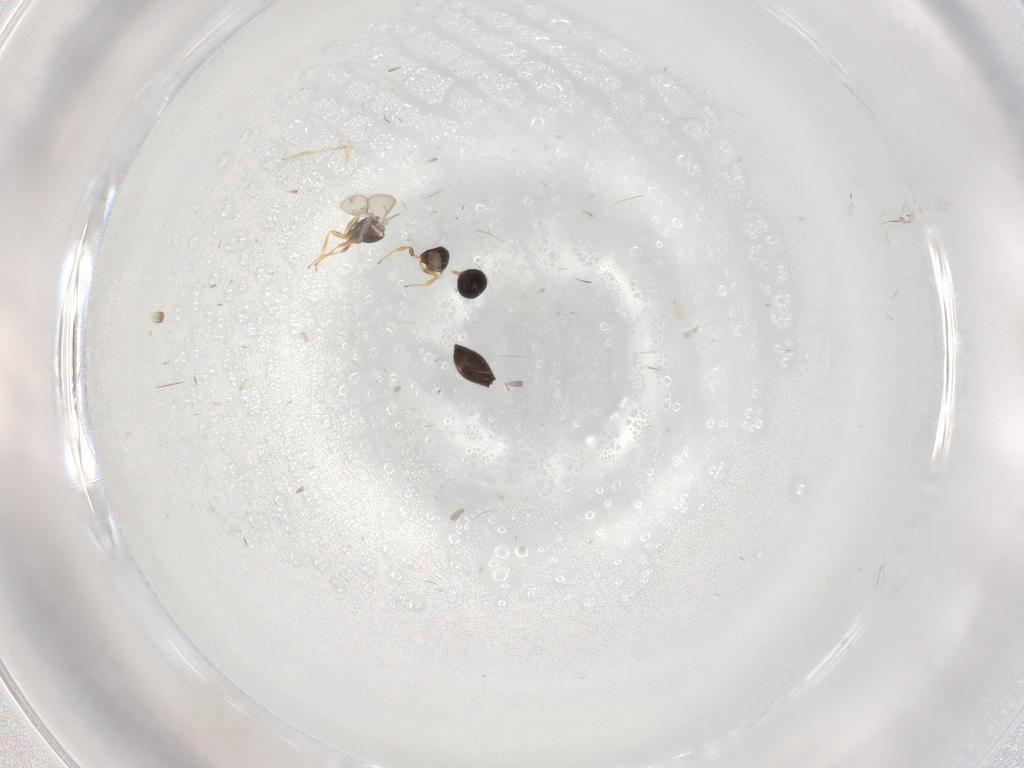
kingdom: Animalia
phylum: Arthropoda
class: Insecta
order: Hymenoptera
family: Scelionidae
